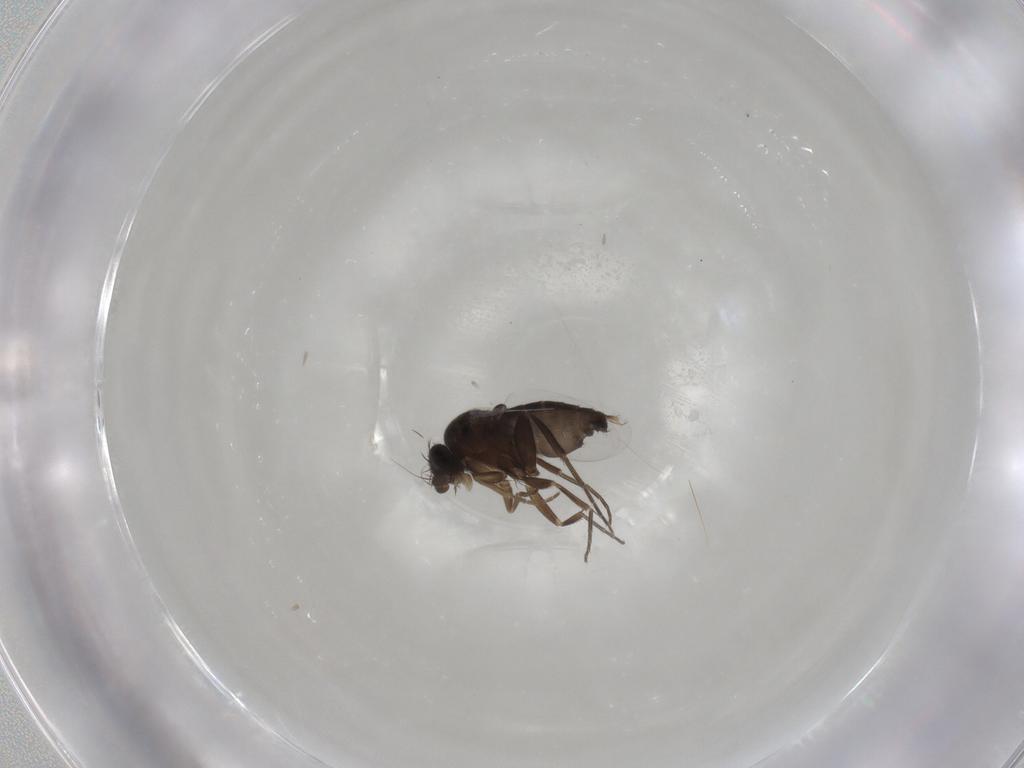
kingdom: Animalia
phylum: Arthropoda
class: Insecta
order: Diptera
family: Phoridae
